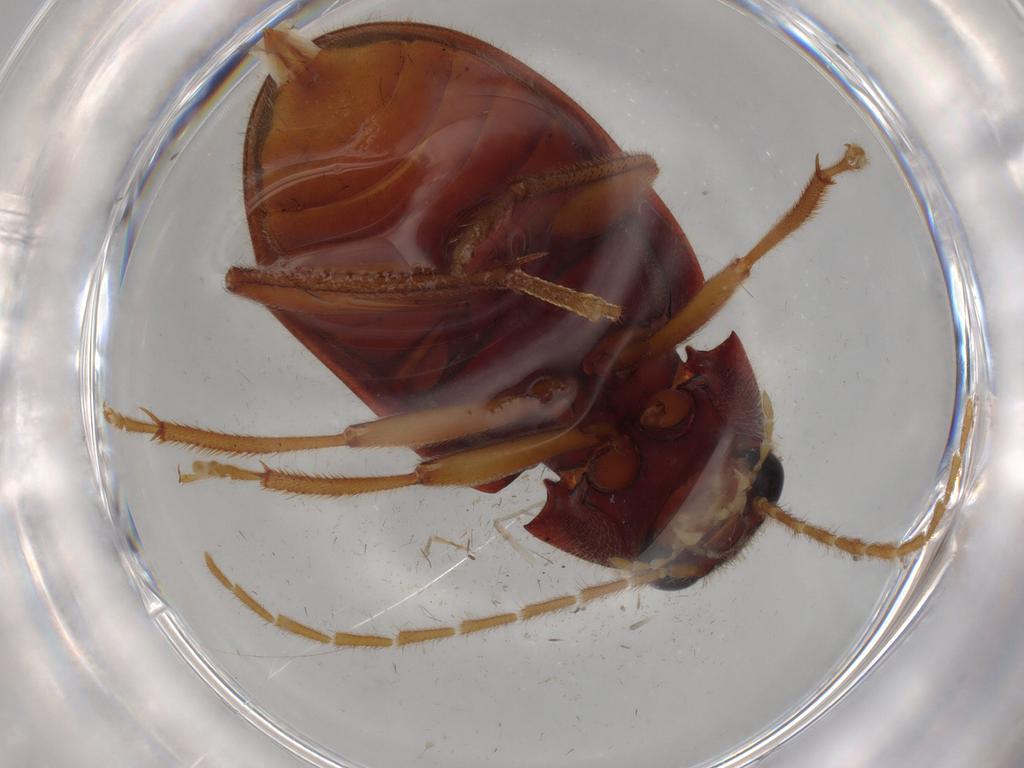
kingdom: Animalia
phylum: Arthropoda
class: Insecta
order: Coleoptera
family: Ptilodactylidae
